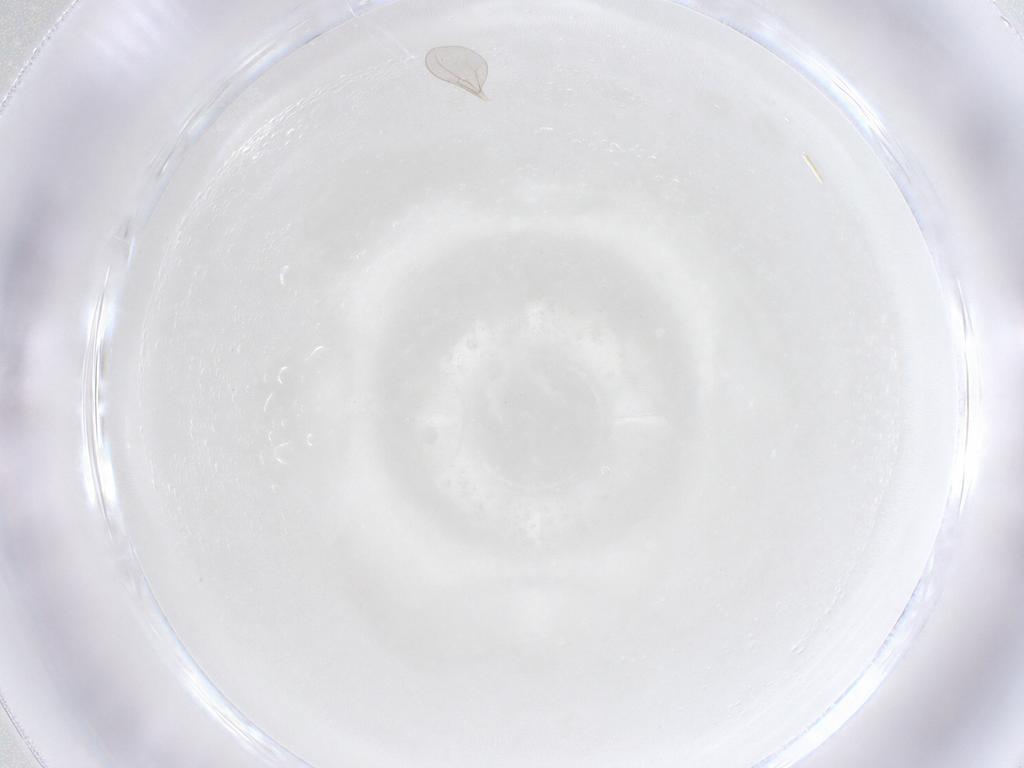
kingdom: Animalia
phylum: Arthropoda
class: Insecta
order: Diptera
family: Cecidomyiidae
